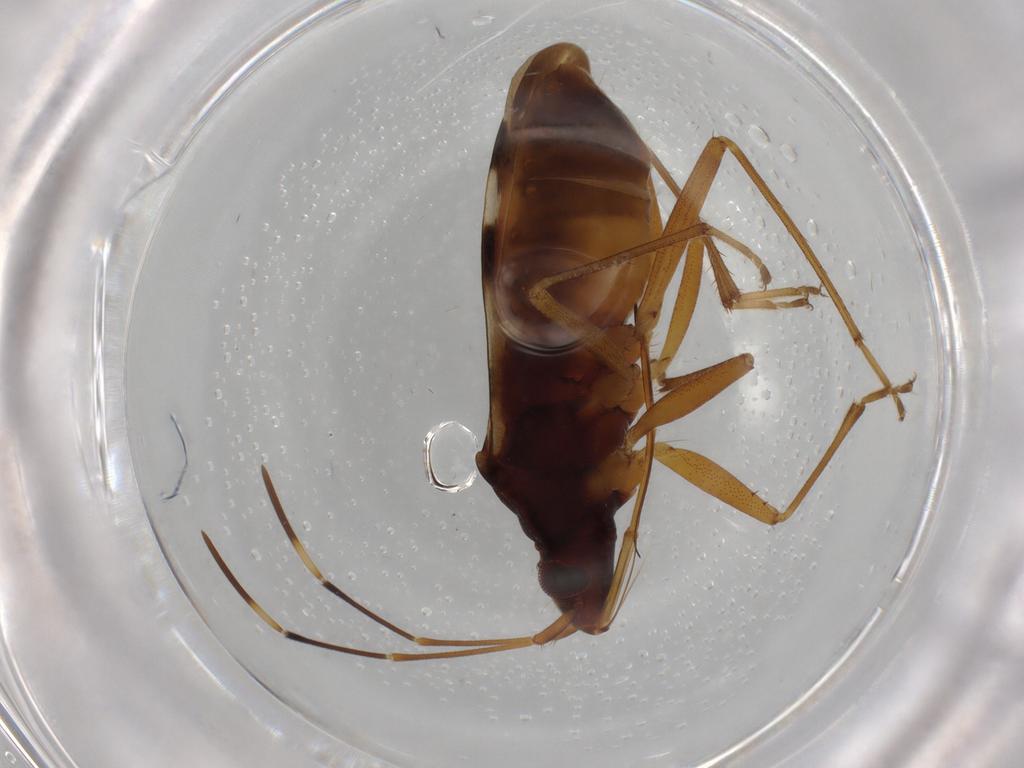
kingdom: Animalia
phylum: Arthropoda
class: Insecta
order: Hemiptera
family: Rhyparochromidae
